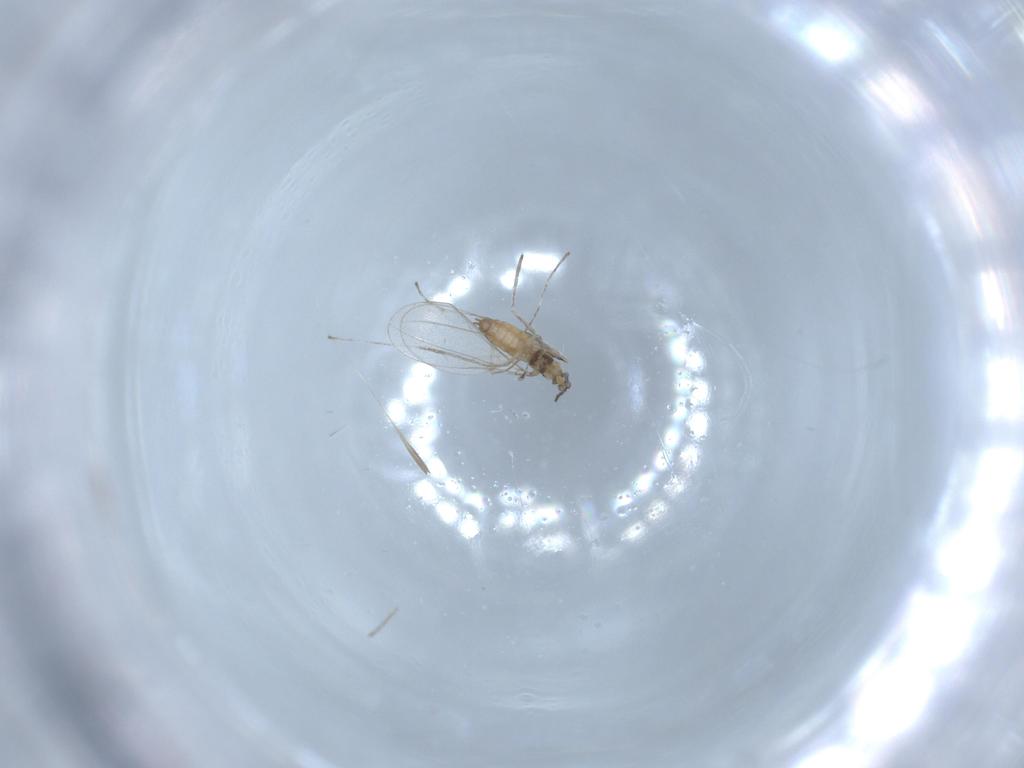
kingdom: Animalia
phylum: Arthropoda
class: Insecta
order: Diptera
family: Cecidomyiidae
